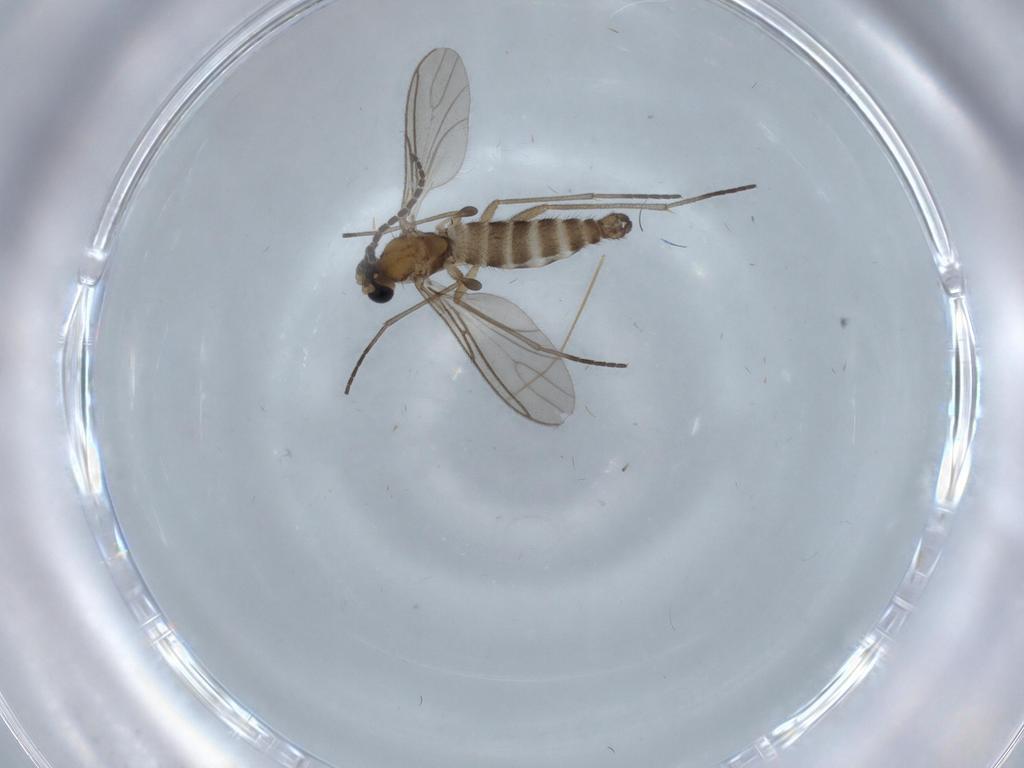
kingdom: Animalia
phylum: Arthropoda
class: Insecta
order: Diptera
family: Sciaridae
